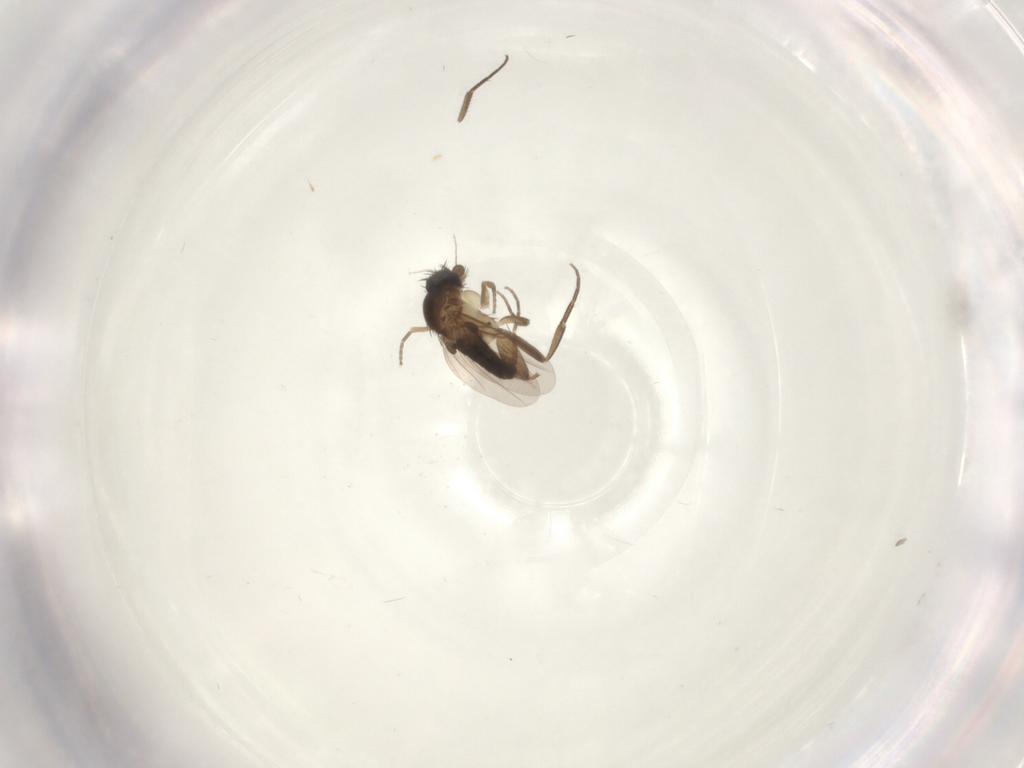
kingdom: Animalia
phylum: Arthropoda
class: Insecta
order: Diptera
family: Phoridae
